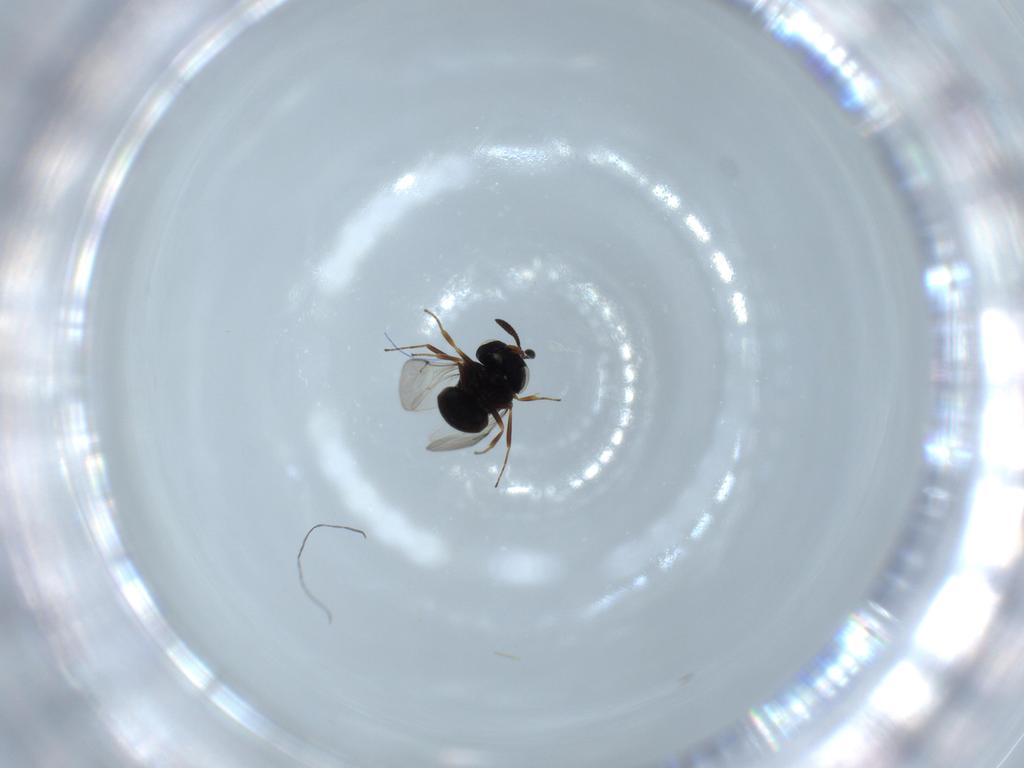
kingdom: Animalia
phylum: Arthropoda
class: Insecta
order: Hymenoptera
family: Scelionidae
